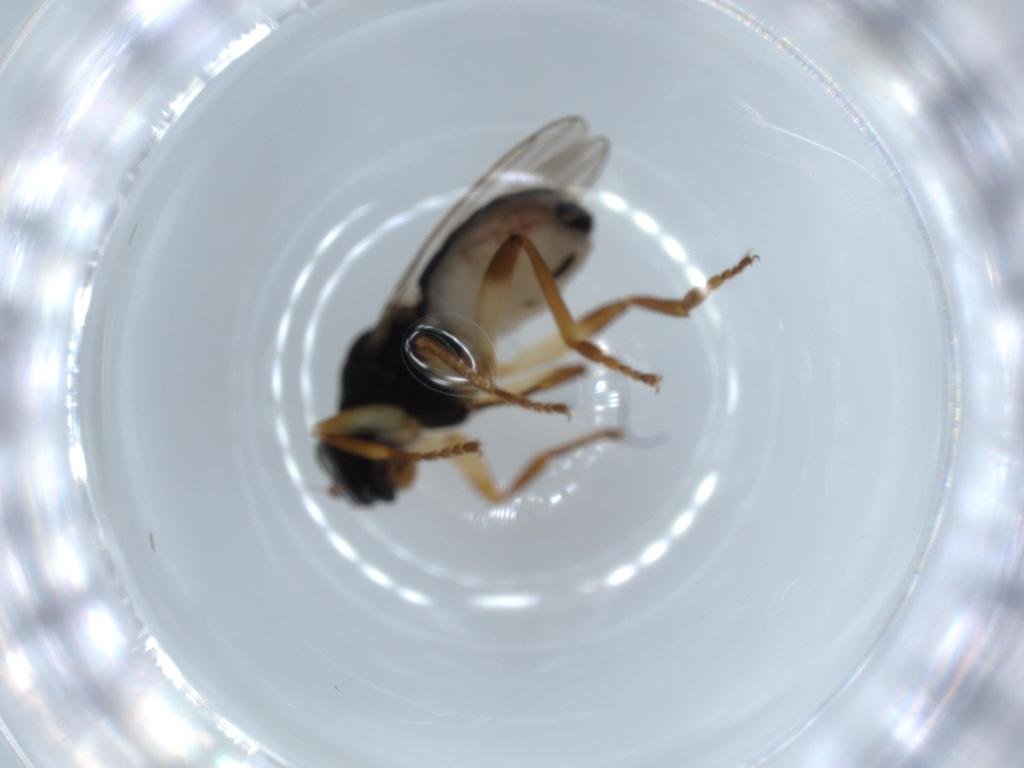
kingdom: Animalia
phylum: Arthropoda
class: Insecta
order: Diptera
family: Sphaeroceridae
